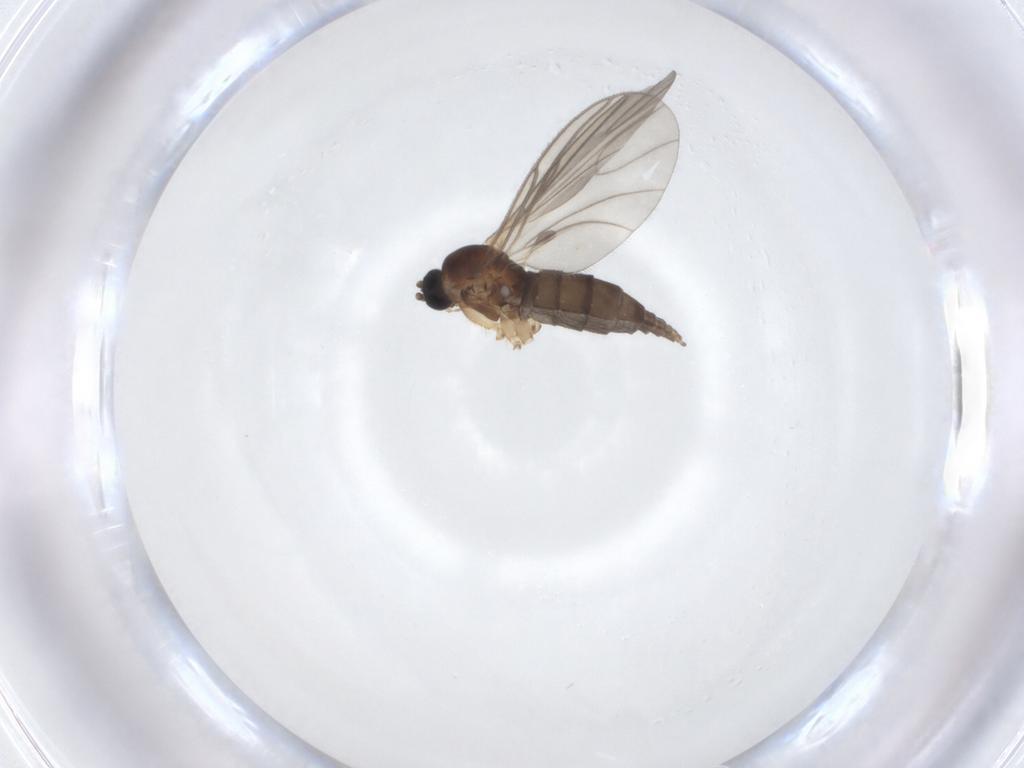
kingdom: Animalia
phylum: Arthropoda
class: Insecta
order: Diptera
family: Sciaridae
